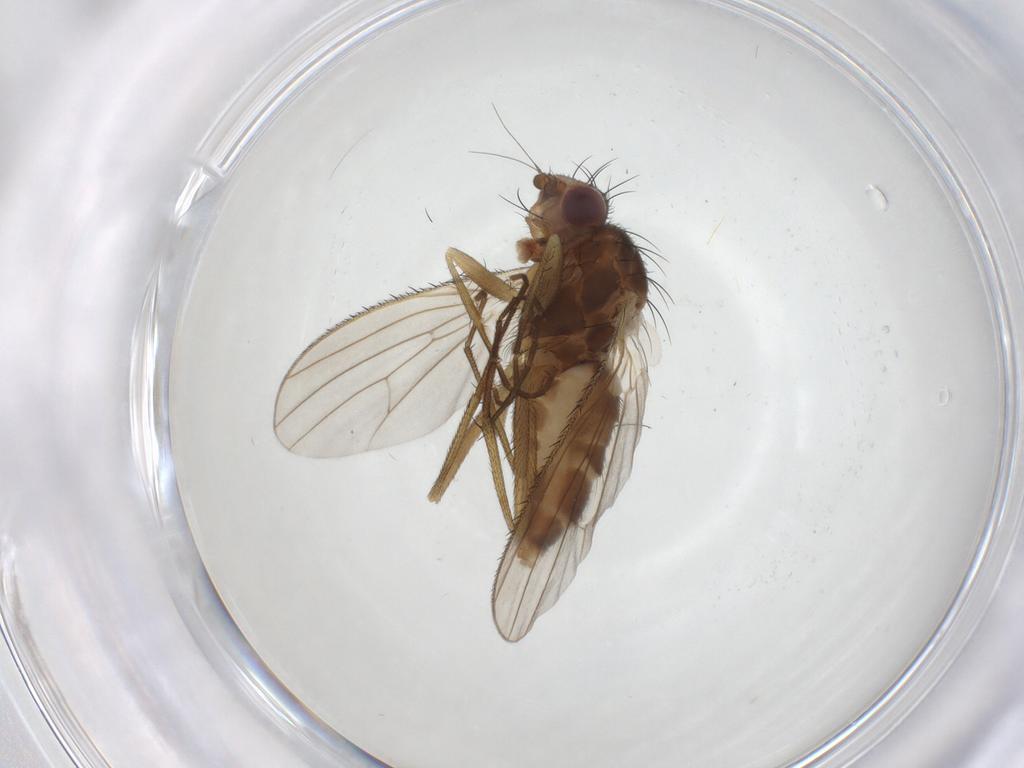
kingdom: Animalia
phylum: Arthropoda
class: Insecta
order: Diptera
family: Heleomyzidae
